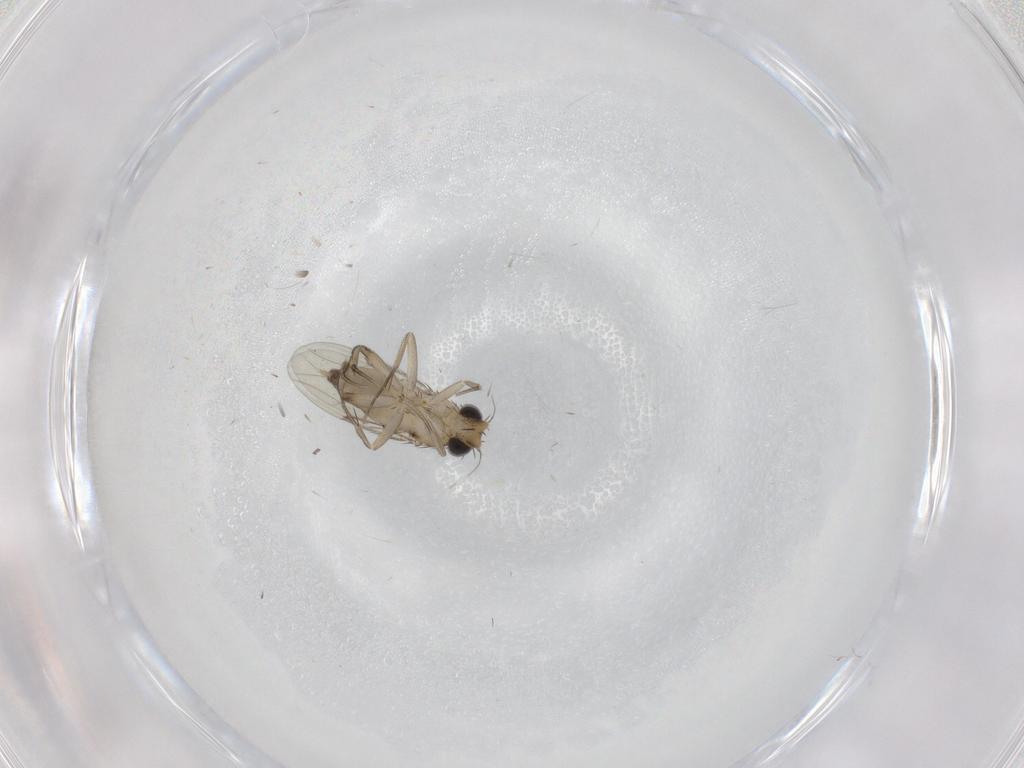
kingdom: Animalia
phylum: Arthropoda
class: Insecta
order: Diptera
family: Phoridae
